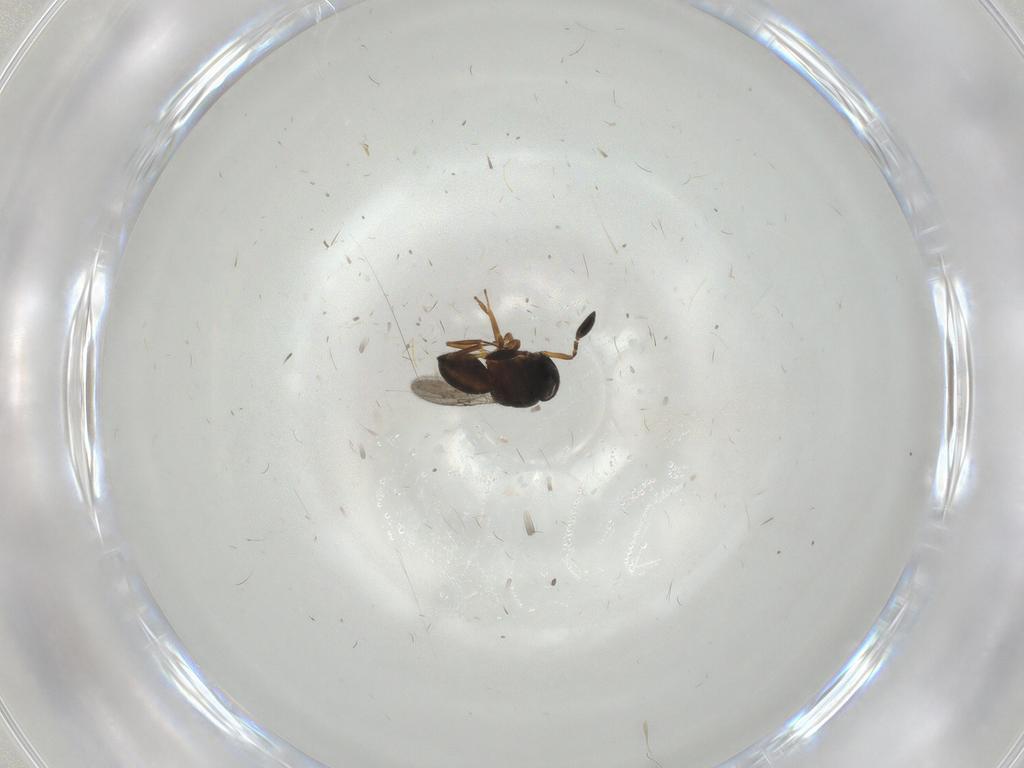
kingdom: Animalia
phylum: Arthropoda
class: Insecta
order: Hymenoptera
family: Scelionidae
